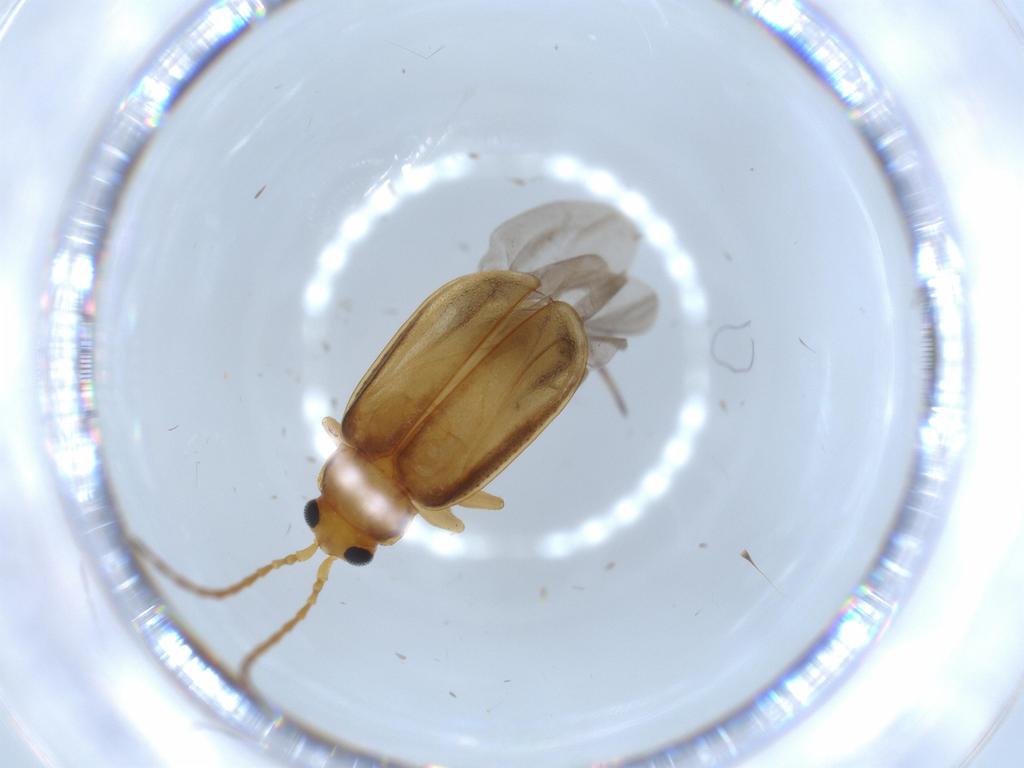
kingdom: Animalia
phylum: Arthropoda
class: Insecta
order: Coleoptera
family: Chrysomelidae
